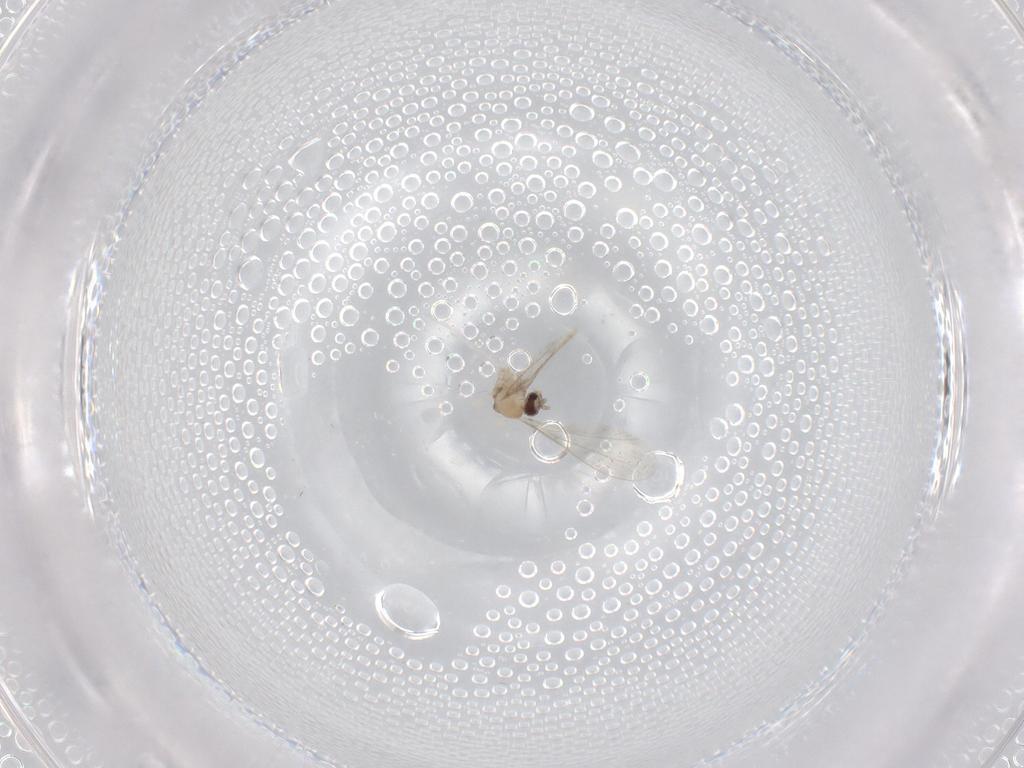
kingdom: Animalia
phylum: Arthropoda
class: Insecta
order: Diptera
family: Cecidomyiidae
